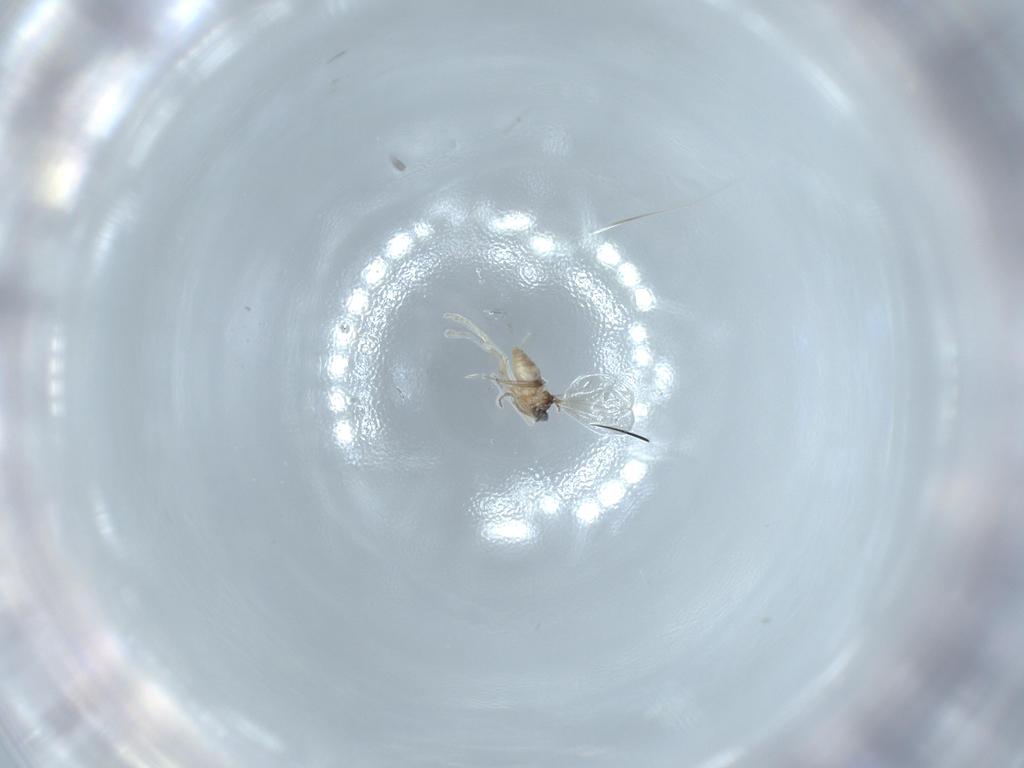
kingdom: Animalia
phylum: Arthropoda
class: Insecta
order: Diptera
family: Cecidomyiidae
